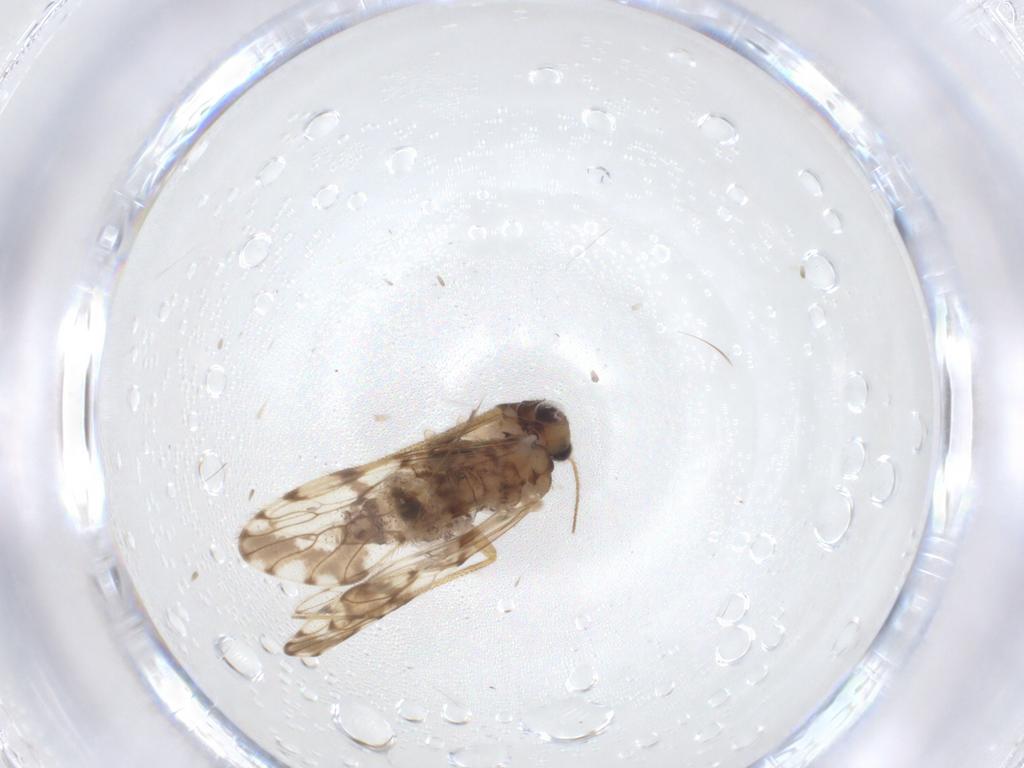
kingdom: Animalia
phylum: Arthropoda
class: Insecta
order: Psocodea
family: Epipsocidae
